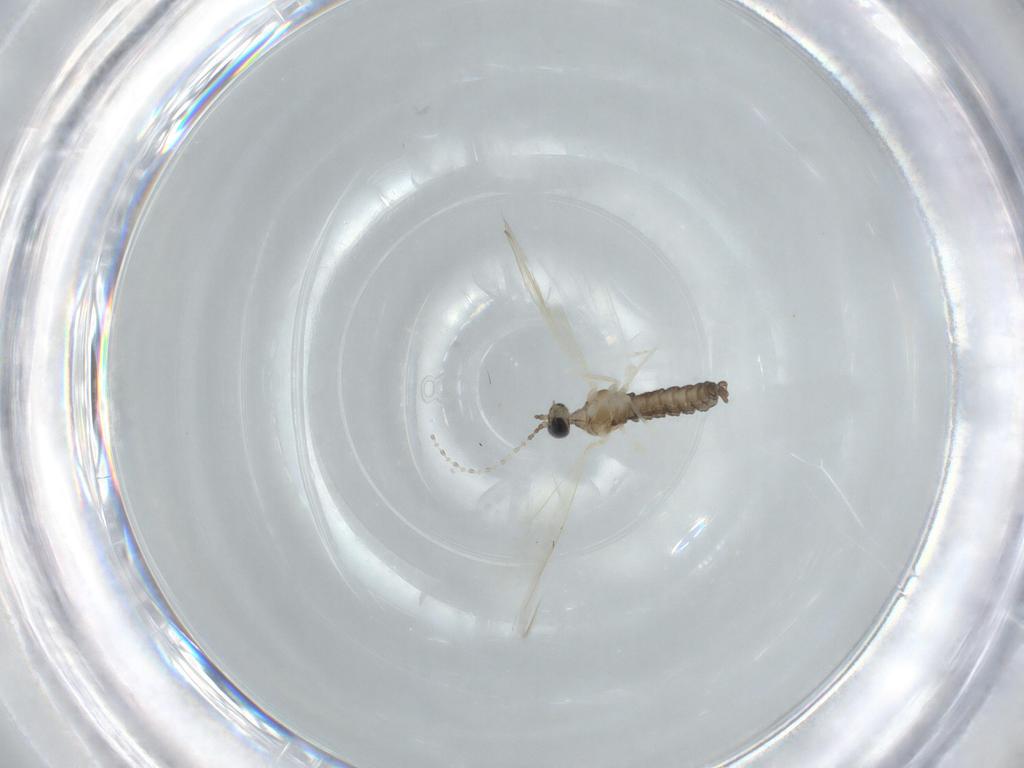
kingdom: Animalia
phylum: Arthropoda
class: Insecta
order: Diptera
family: Cecidomyiidae
